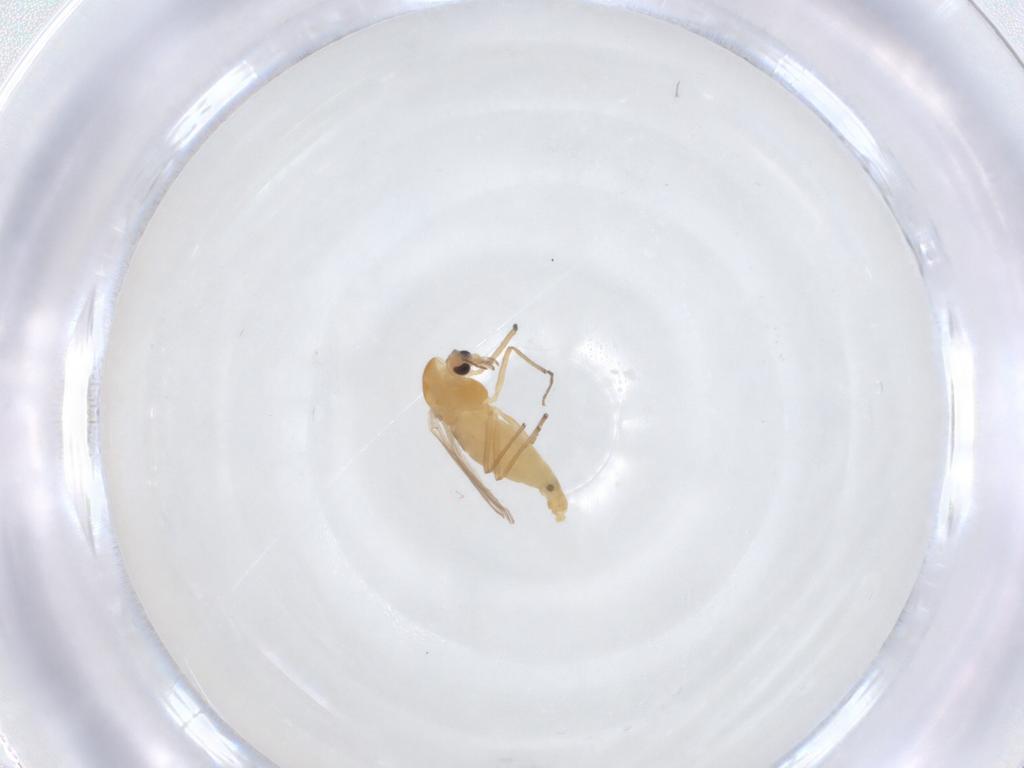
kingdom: Animalia
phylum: Arthropoda
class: Insecta
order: Diptera
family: Chironomidae
